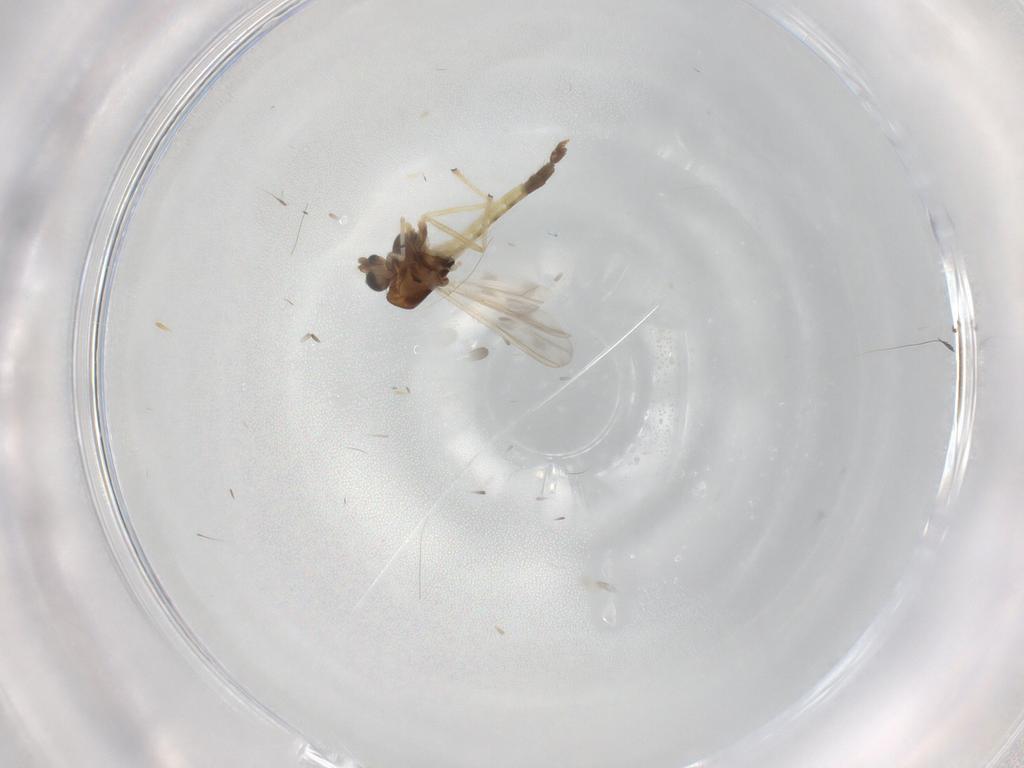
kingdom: Animalia
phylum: Arthropoda
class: Insecta
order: Diptera
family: Chironomidae
